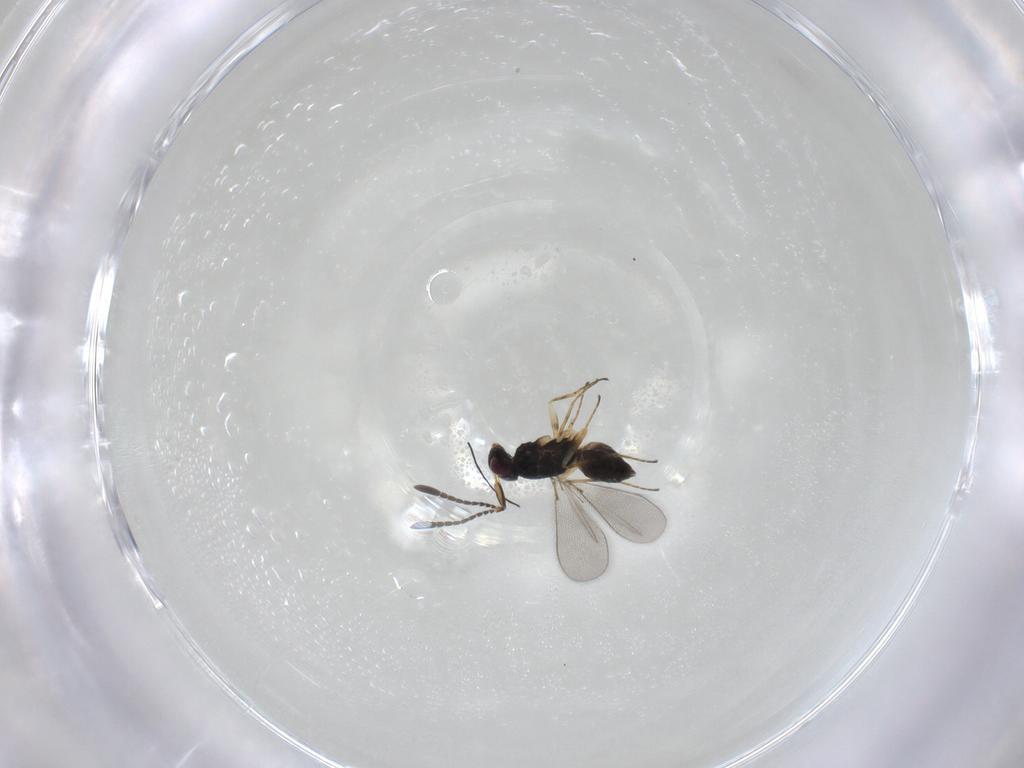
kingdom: Animalia
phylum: Arthropoda
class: Insecta
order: Hymenoptera
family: Mymaridae
